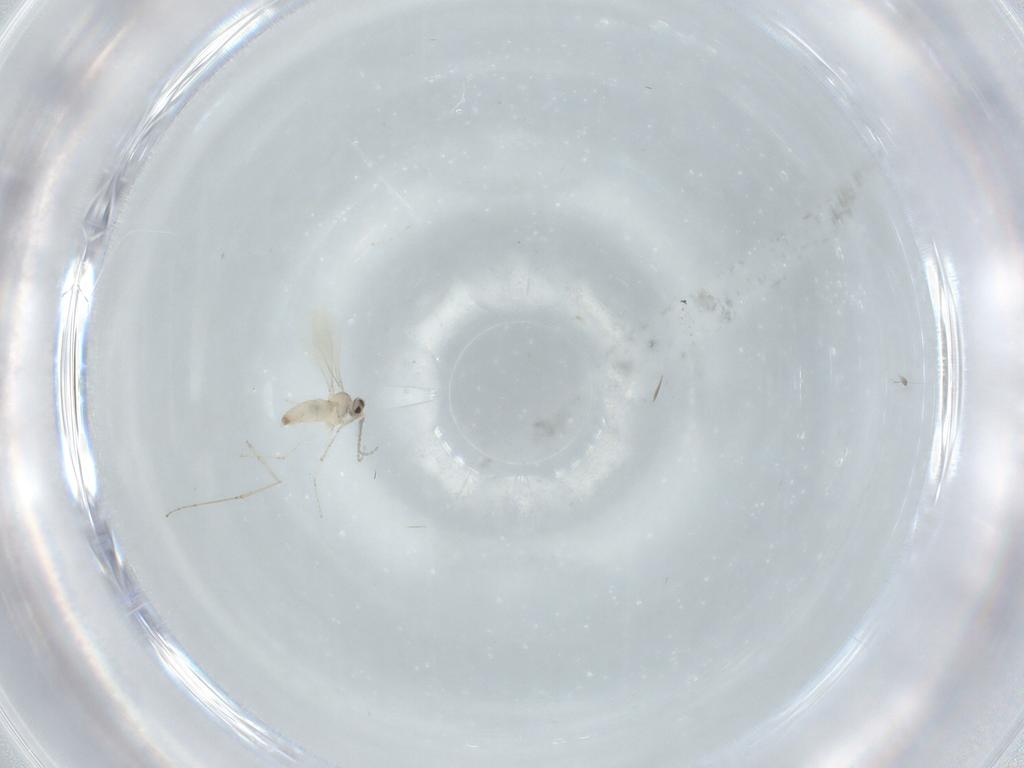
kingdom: Animalia
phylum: Arthropoda
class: Insecta
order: Diptera
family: Cecidomyiidae
